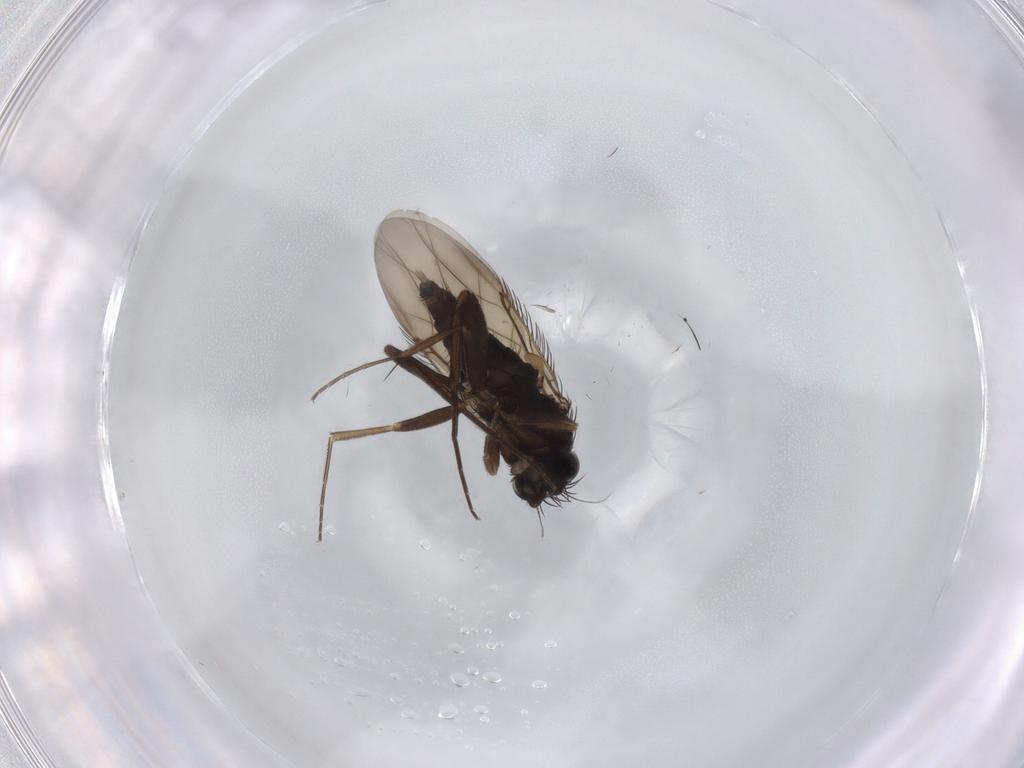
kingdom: Animalia
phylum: Arthropoda
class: Insecta
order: Diptera
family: Phoridae
